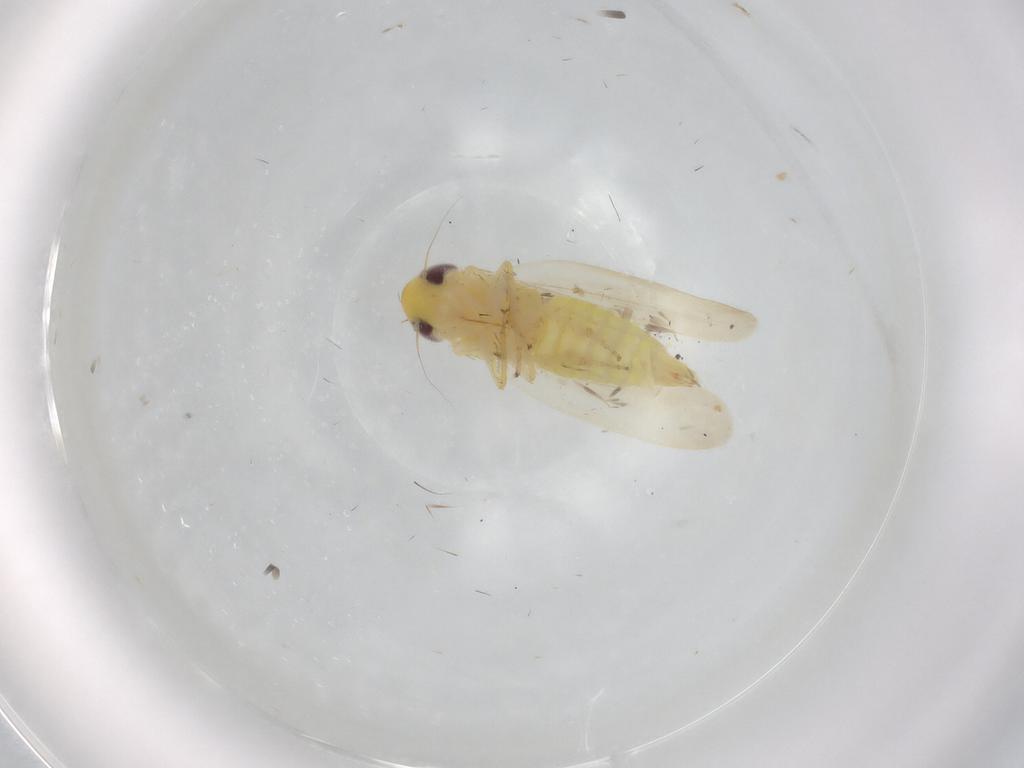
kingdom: Animalia
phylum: Arthropoda
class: Insecta
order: Hemiptera
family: Cicadellidae
